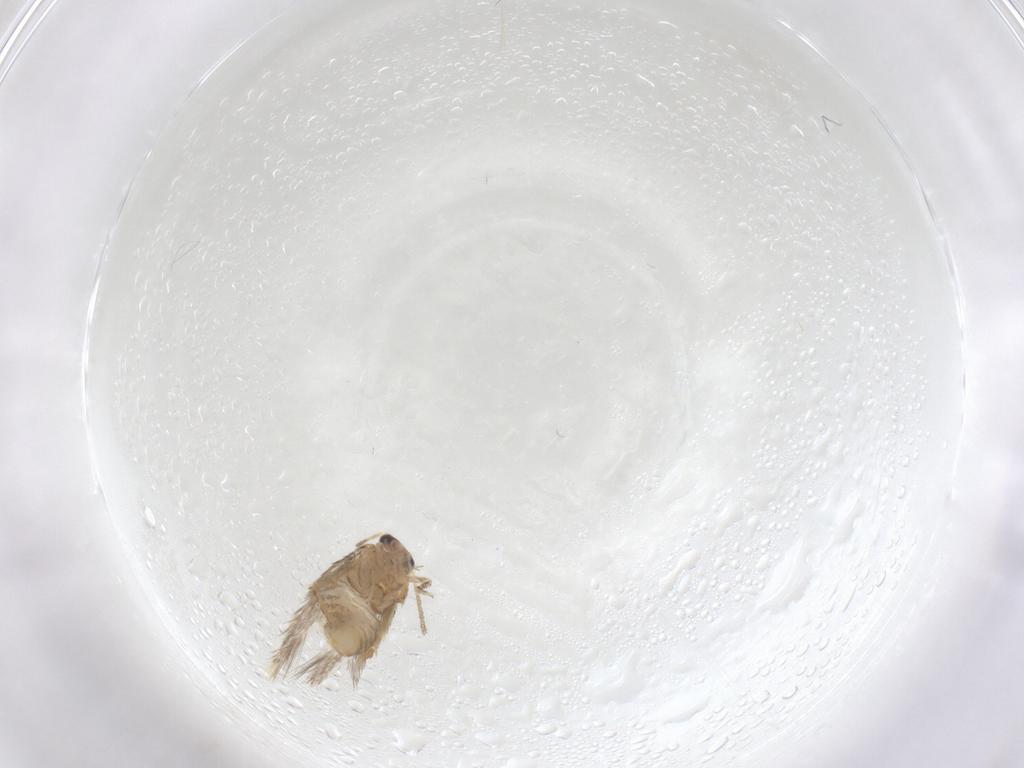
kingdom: Animalia
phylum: Arthropoda
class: Insecta
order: Lepidoptera
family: Nepticulidae
